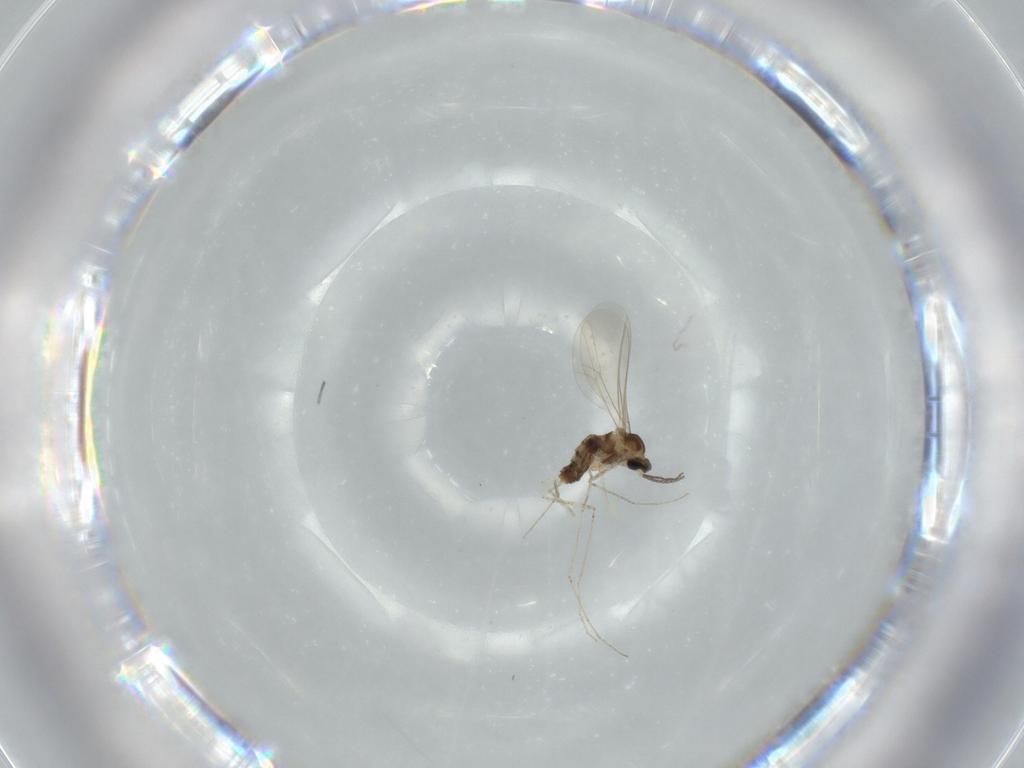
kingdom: Animalia
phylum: Arthropoda
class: Insecta
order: Diptera
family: Cecidomyiidae
